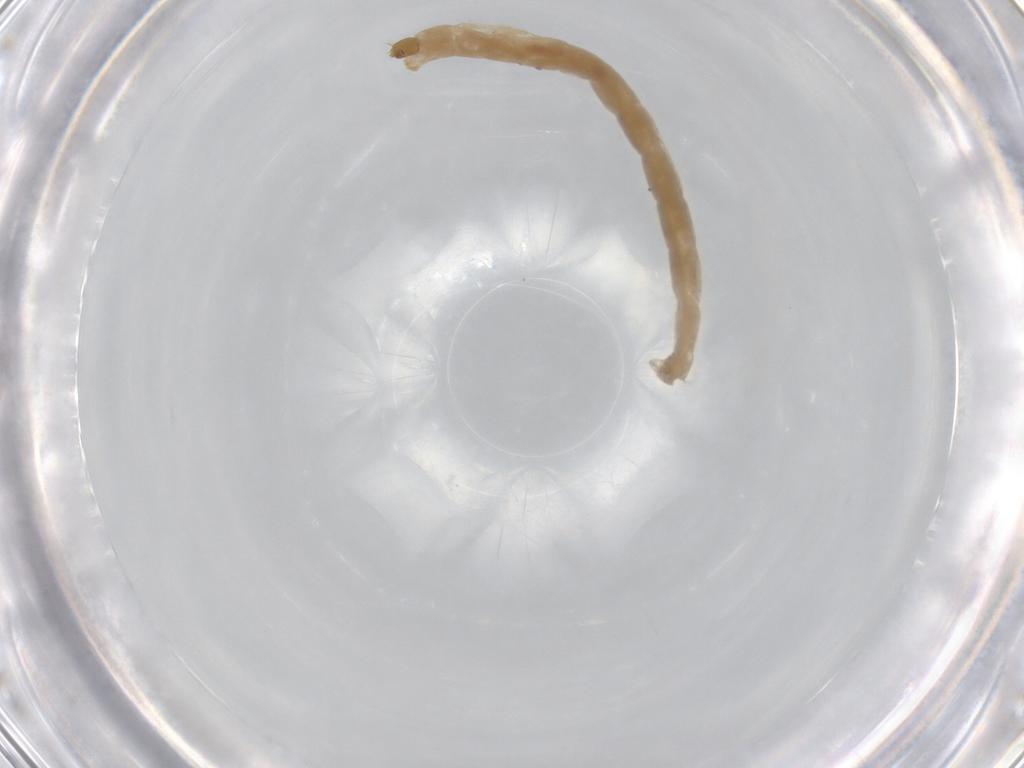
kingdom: Animalia
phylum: Arthropoda
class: Insecta
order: Diptera
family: Chironomidae
